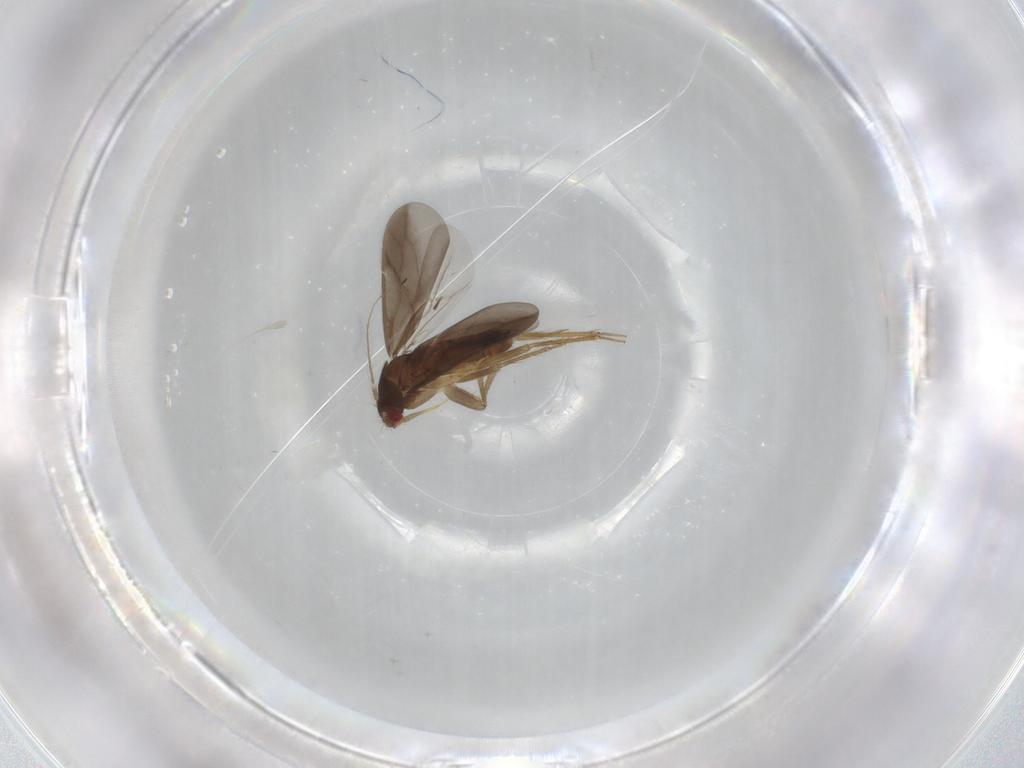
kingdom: Animalia
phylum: Arthropoda
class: Insecta
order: Hemiptera
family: Ceratocombidae
